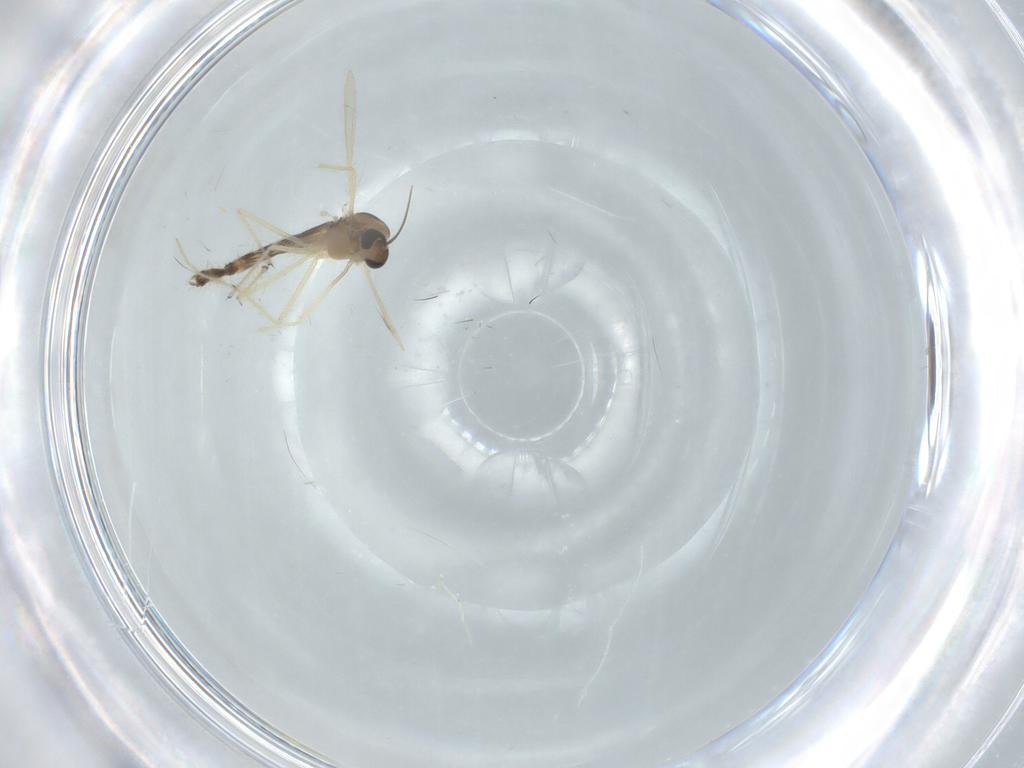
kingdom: Animalia
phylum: Arthropoda
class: Insecta
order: Diptera
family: Chironomidae
